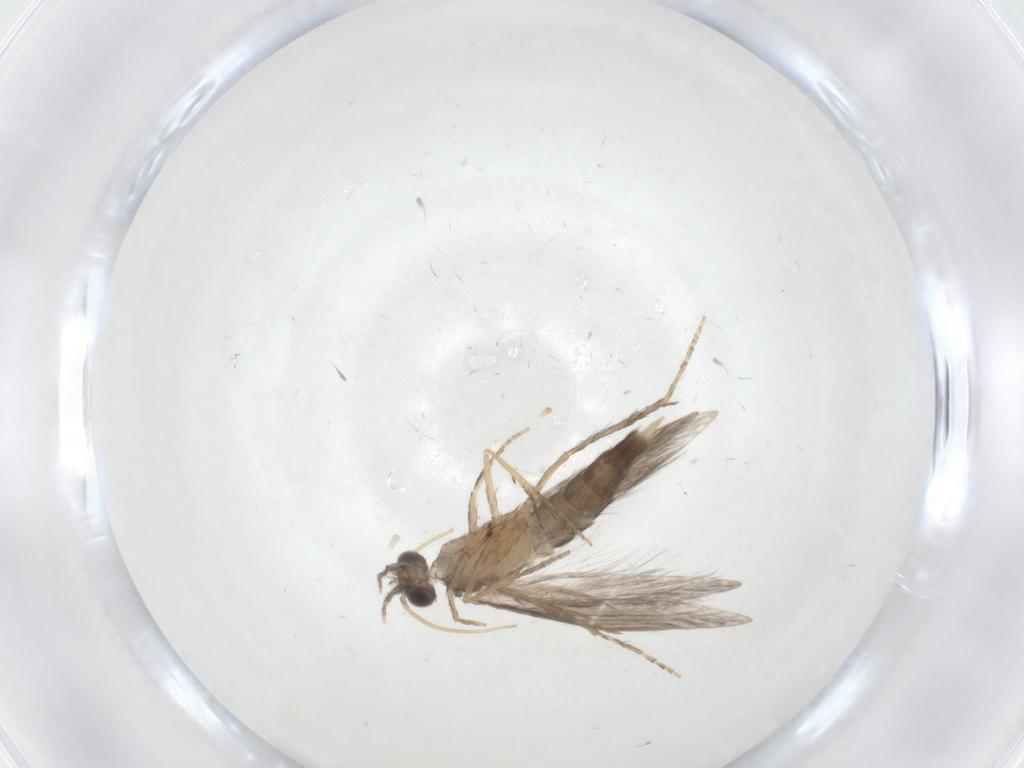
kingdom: Animalia
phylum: Arthropoda
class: Insecta
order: Trichoptera
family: Hydroptilidae
